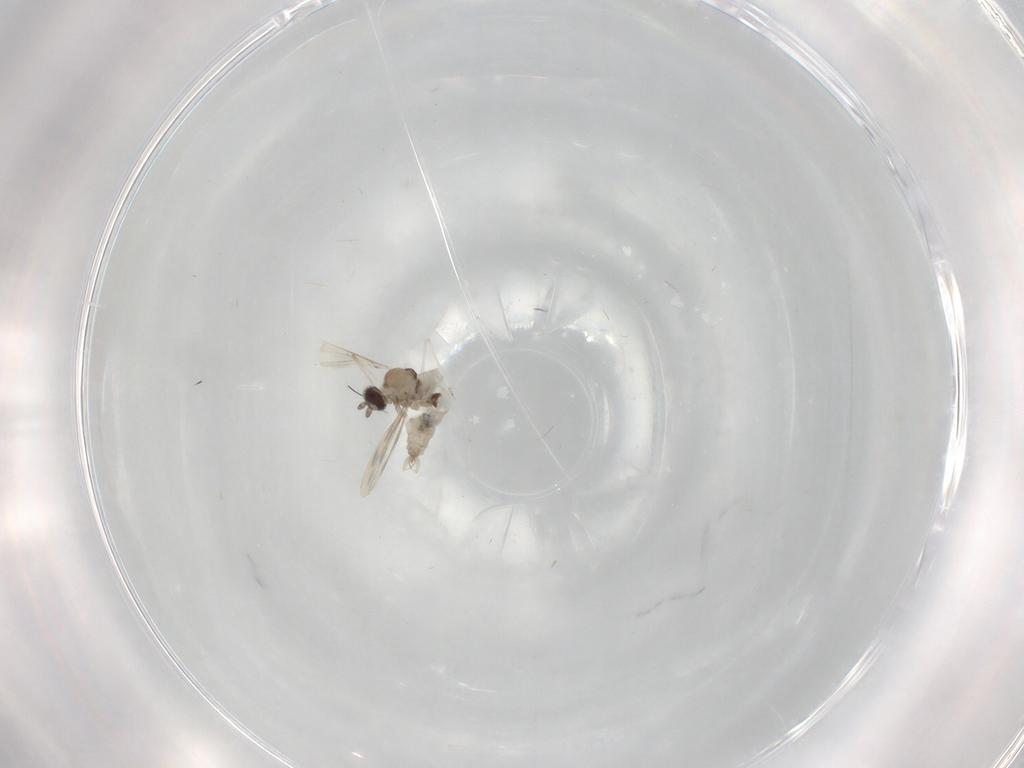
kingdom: Animalia
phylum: Arthropoda
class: Insecta
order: Diptera
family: Cecidomyiidae
